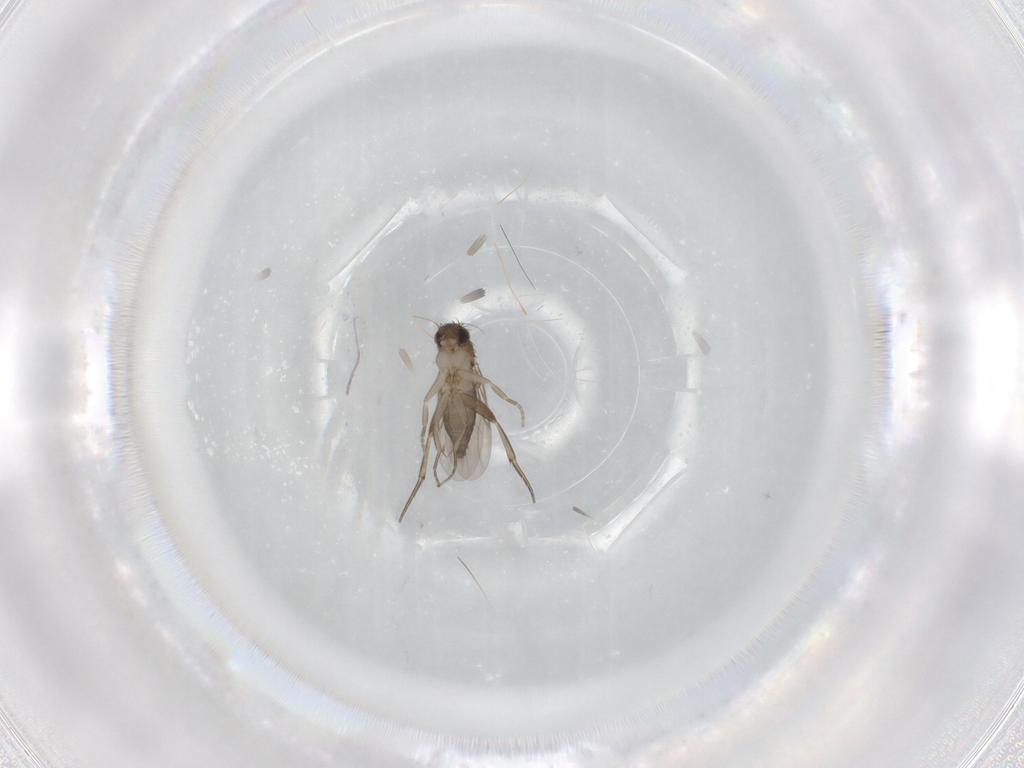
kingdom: Animalia
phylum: Arthropoda
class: Insecta
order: Diptera
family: Phoridae
